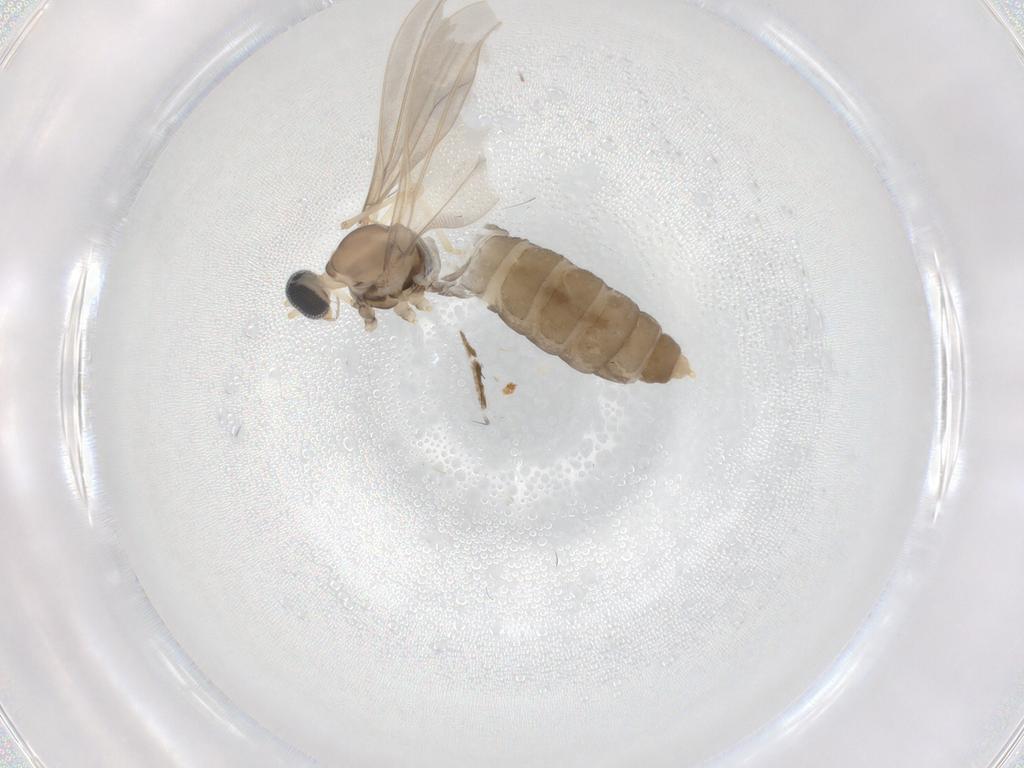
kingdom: Animalia
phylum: Arthropoda
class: Insecta
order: Diptera
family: Cecidomyiidae
